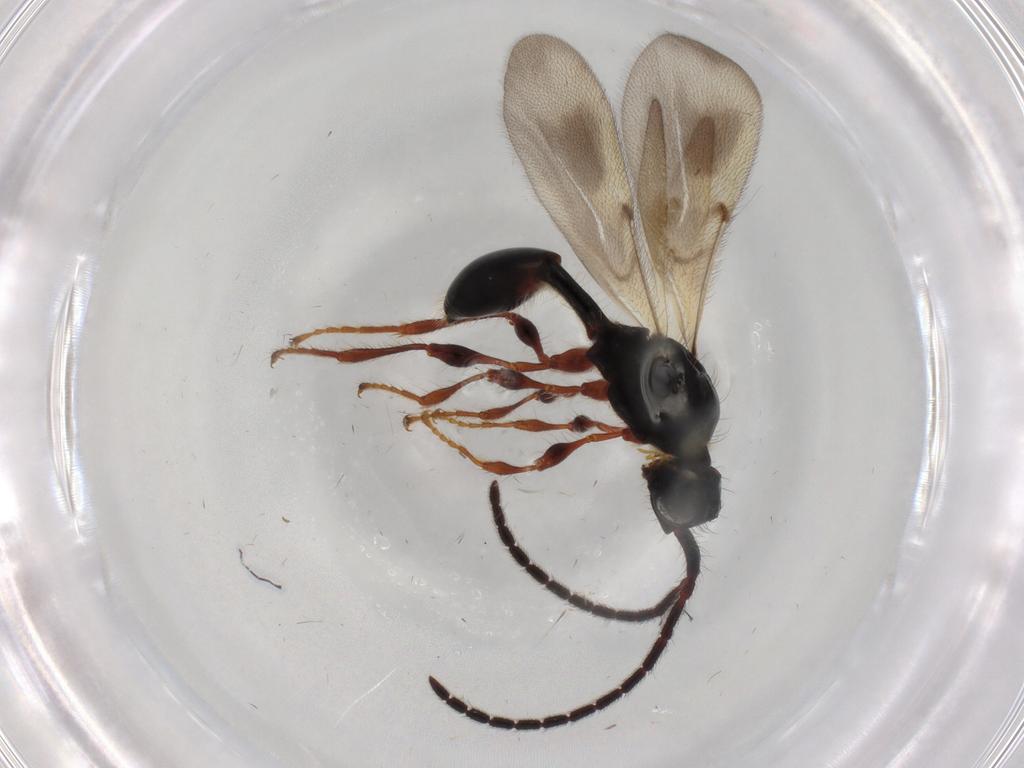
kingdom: Animalia
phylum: Arthropoda
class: Insecta
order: Hymenoptera
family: Diapriidae
